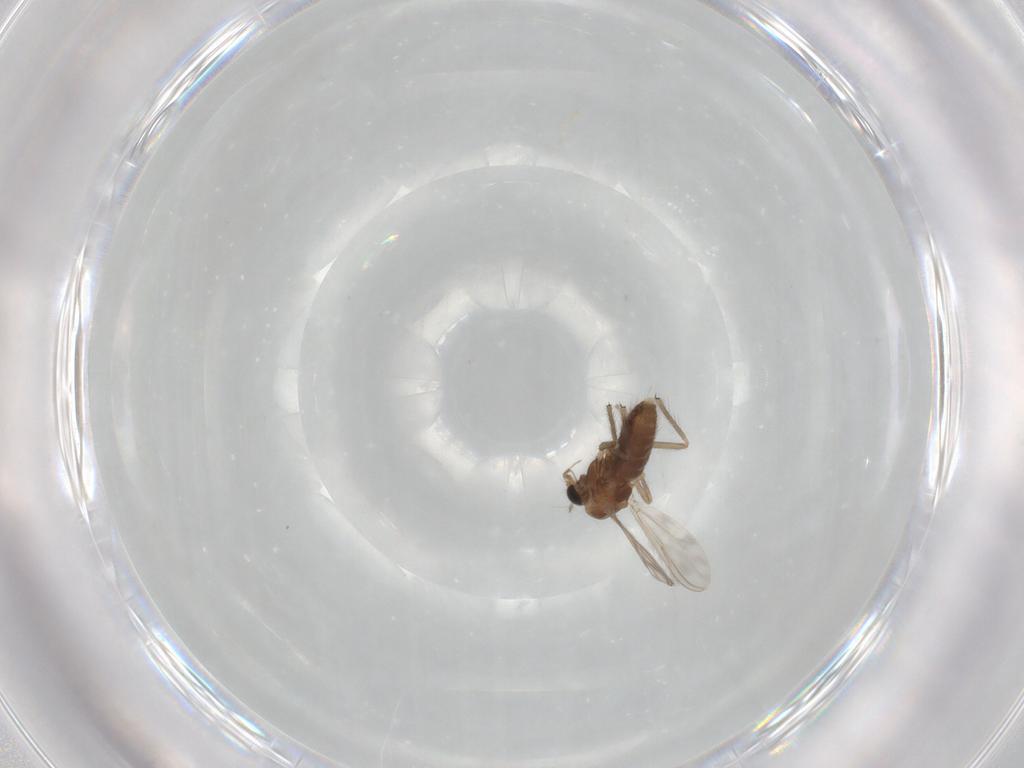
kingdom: Animalia
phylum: Arthropoda
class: Insecta
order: Diptera
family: Chironomidae
